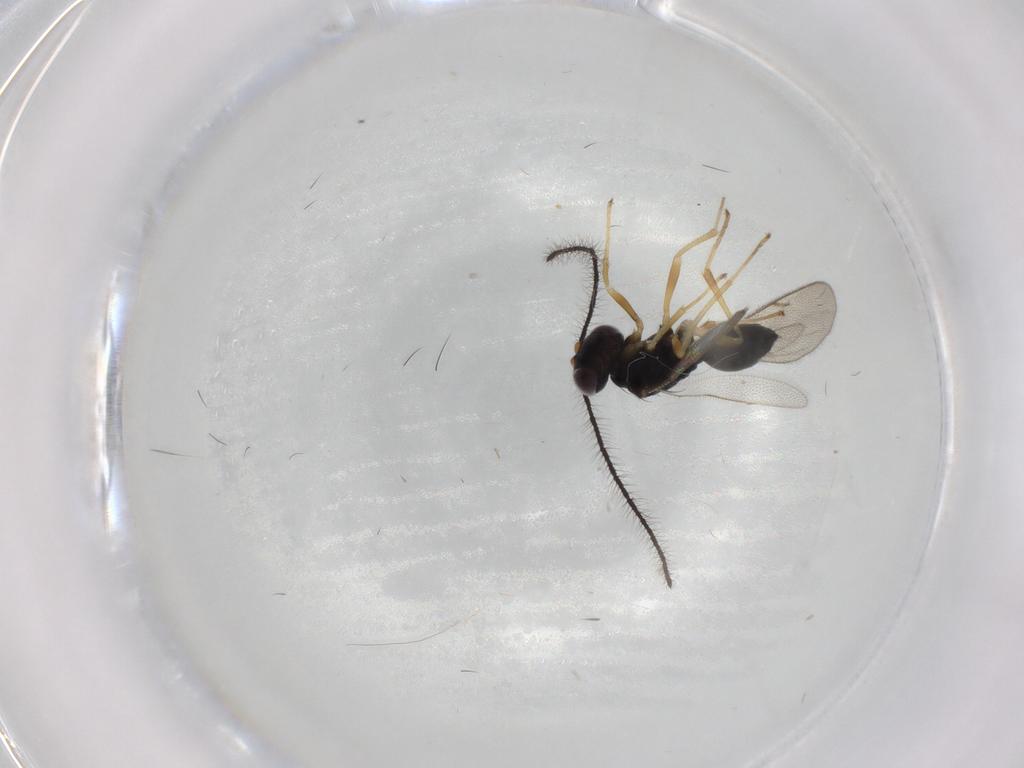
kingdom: Animalia
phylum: Arthropoda
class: Insecta
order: Hymenoptera
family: Diparidae
